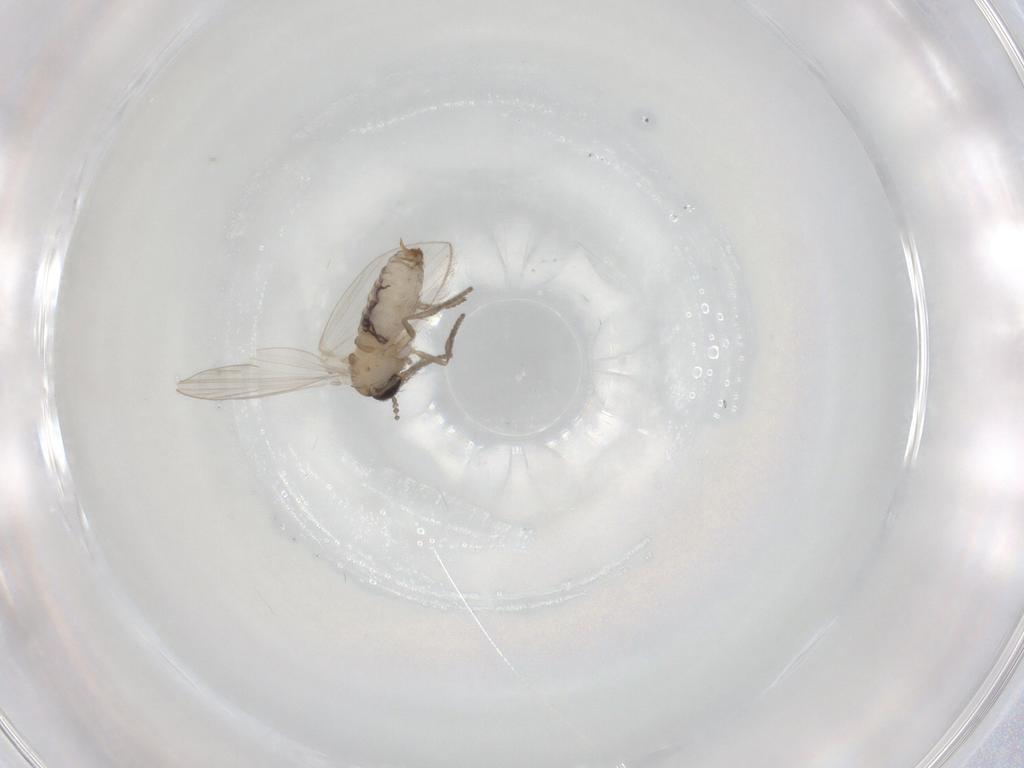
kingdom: Animalia
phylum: Arthropoda
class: Insecta
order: Diptera
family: Psychodidae
